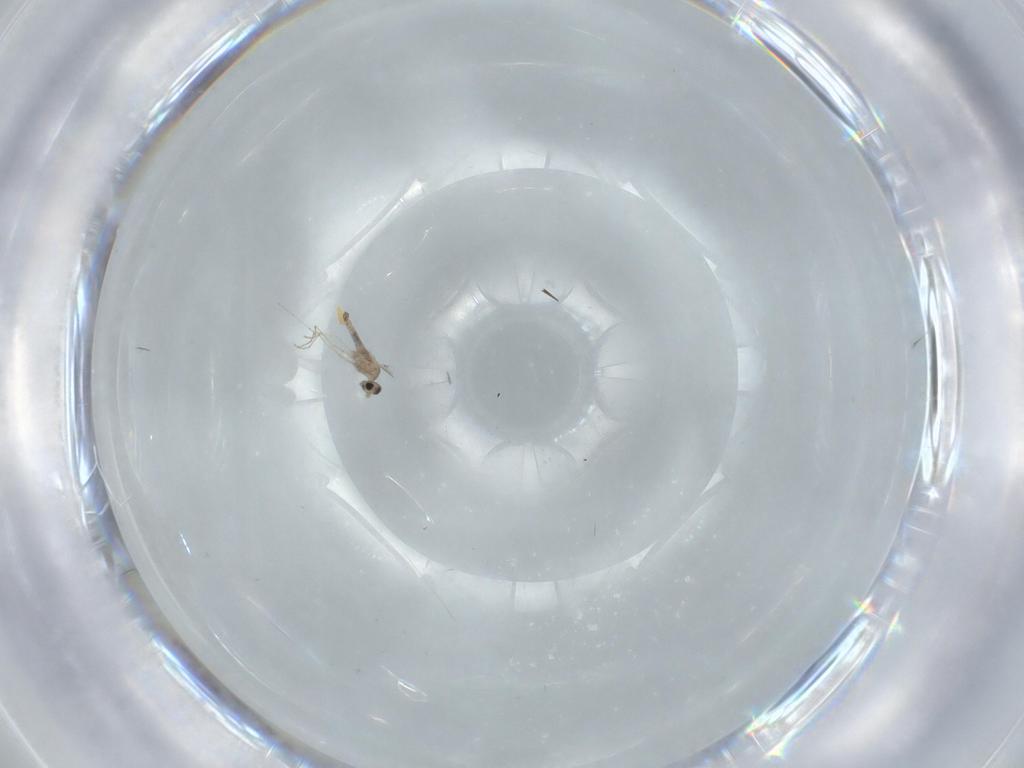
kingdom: Animalia
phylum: Arthropoda
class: Insecta
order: Diptera
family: Cecidomyiidae
